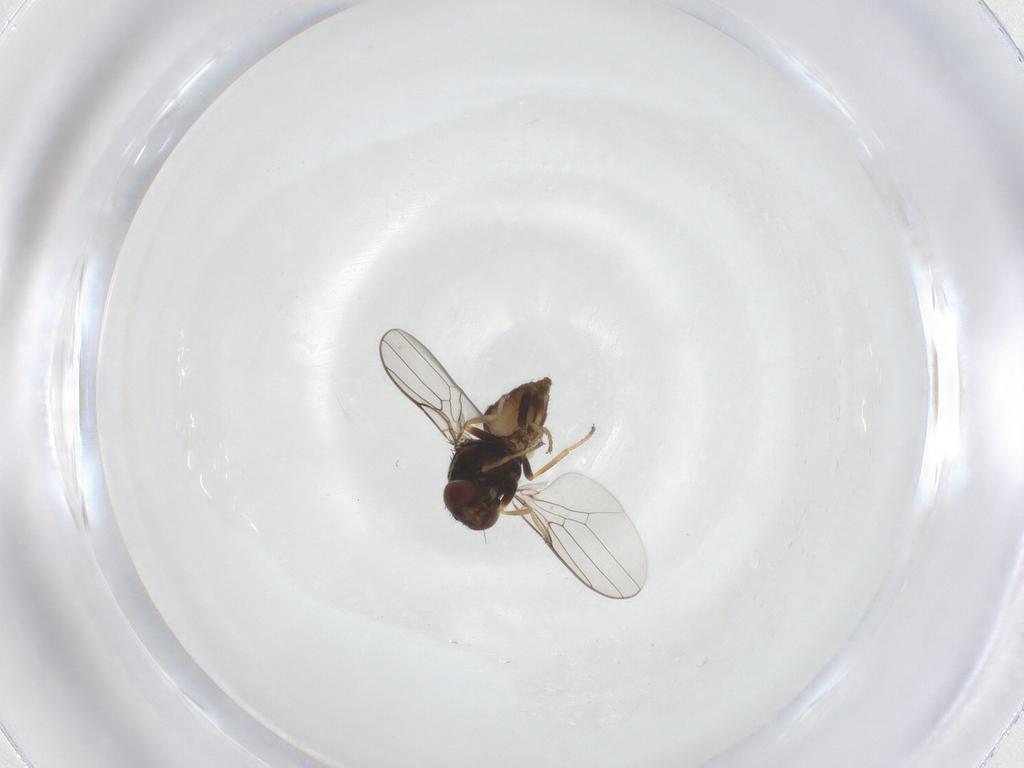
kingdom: Animalia
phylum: Arthropoda
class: Insecta
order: Diptera
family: Chloropidae
